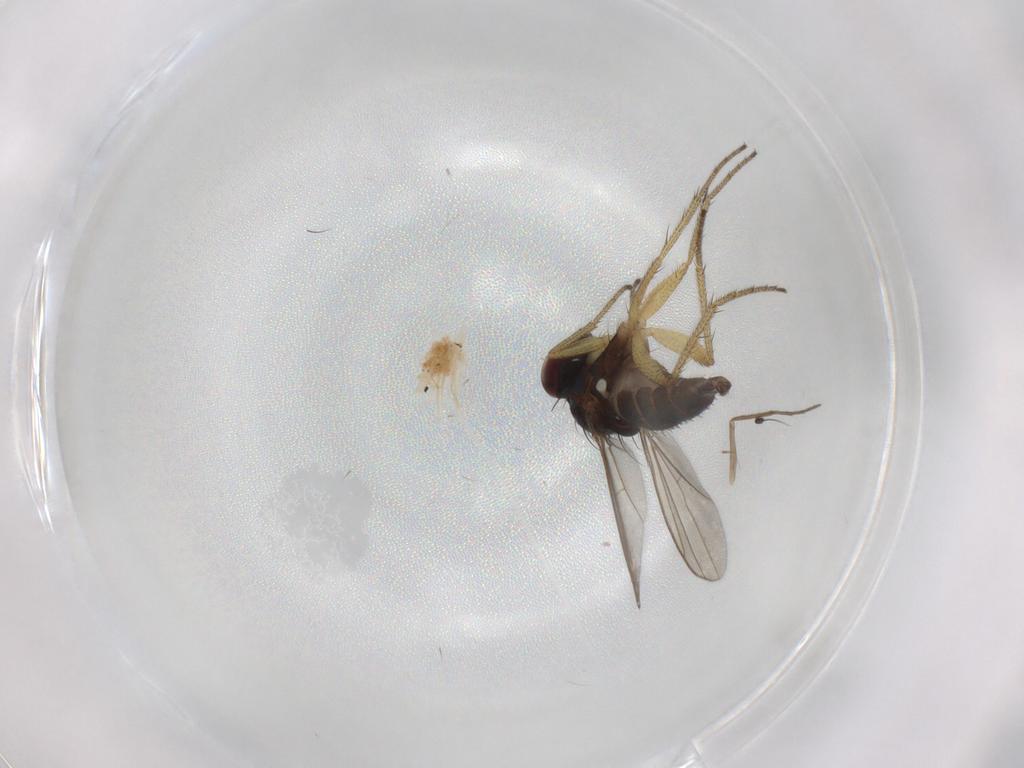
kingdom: Animalia
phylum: Arthropoda
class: Insecta
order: Diptera
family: Chironomidae
